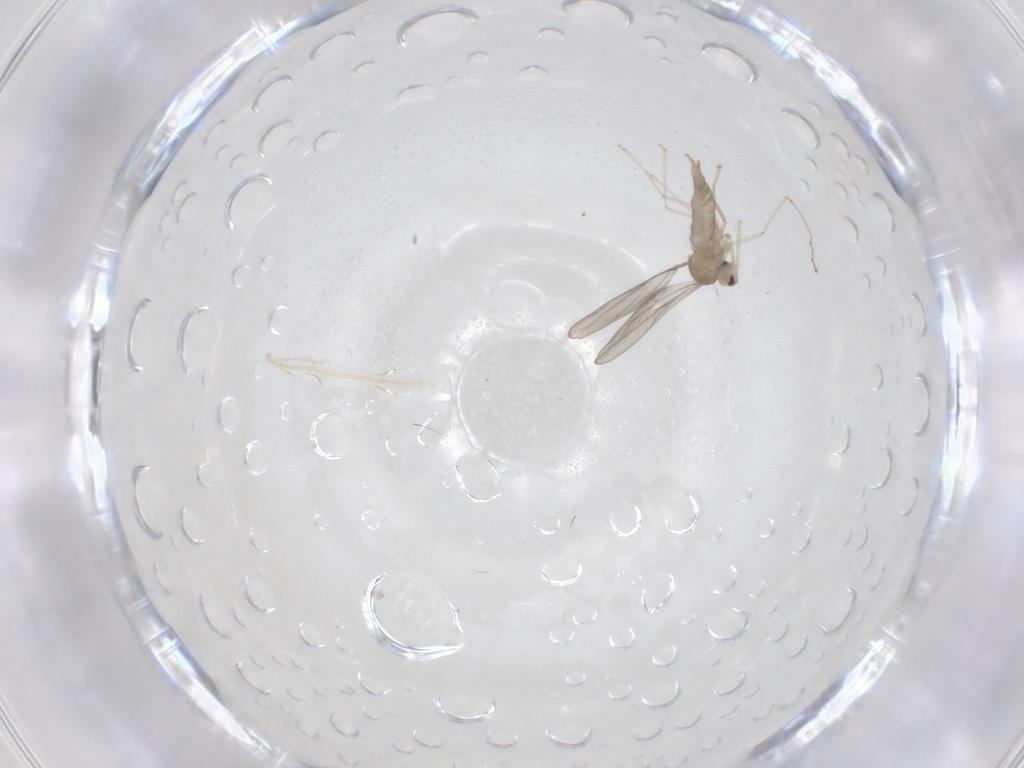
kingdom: Animalia
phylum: Arthropoda
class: Insecta
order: Diptera
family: Cecidomyiidae
